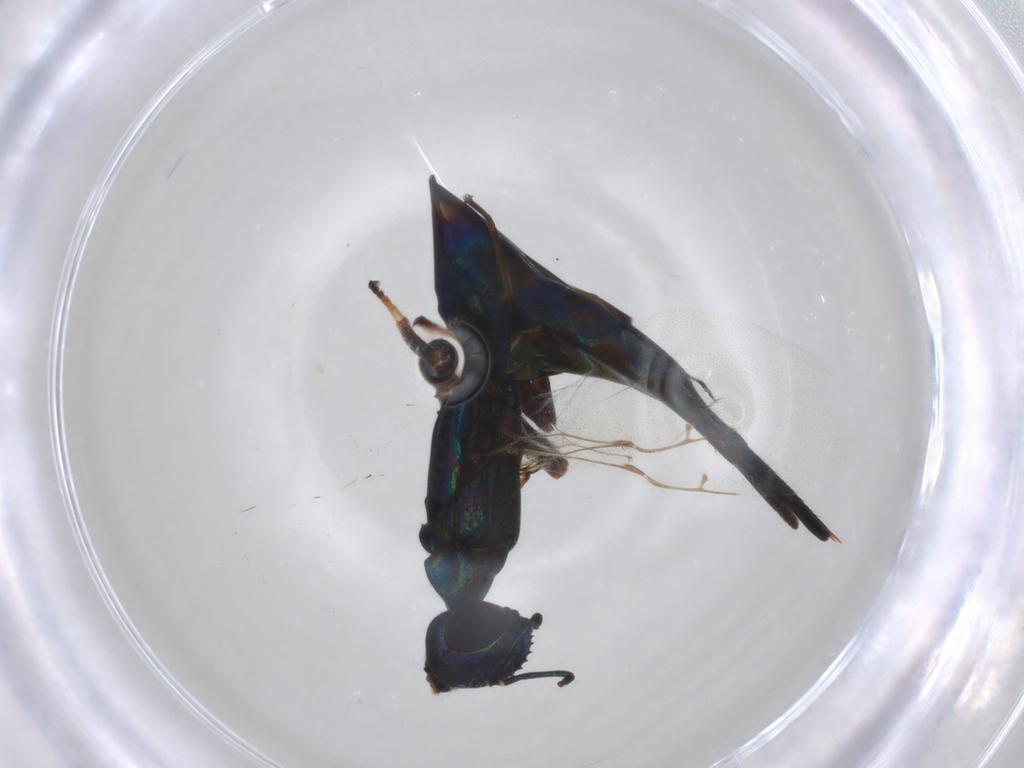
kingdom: Animalia
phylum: Arthropoda
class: Insecta
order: Hymenoptera
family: Eupelmidae
